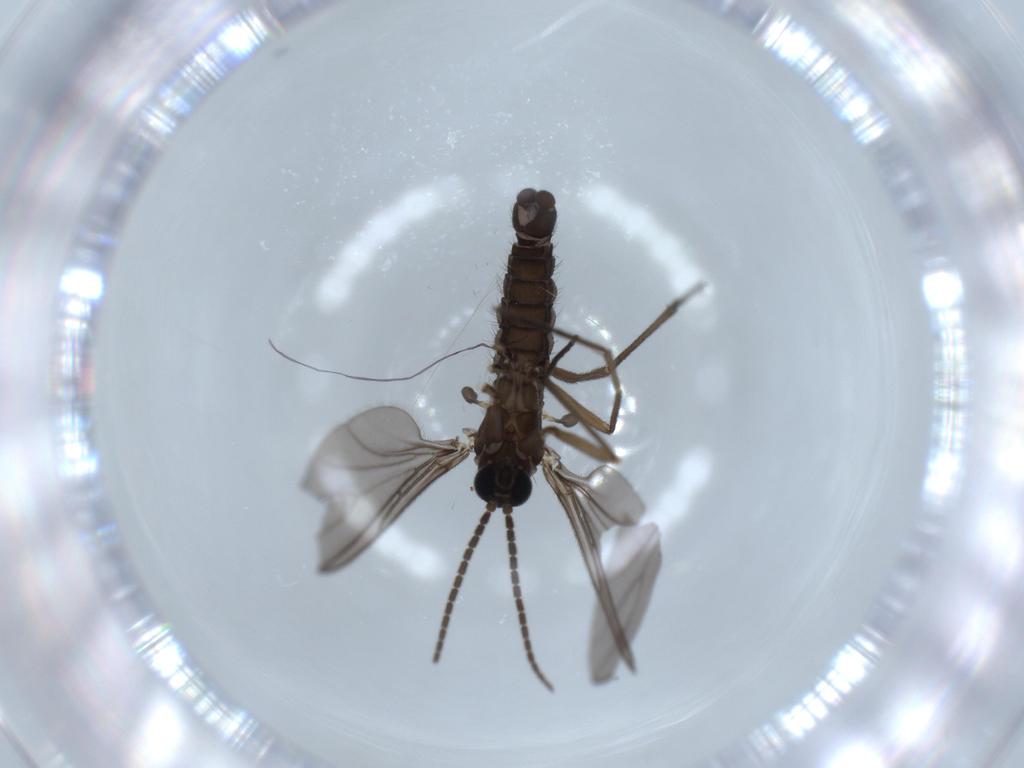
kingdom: Animalia
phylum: Arthropoda
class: Insecta
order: Diptera
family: Sciaridae
